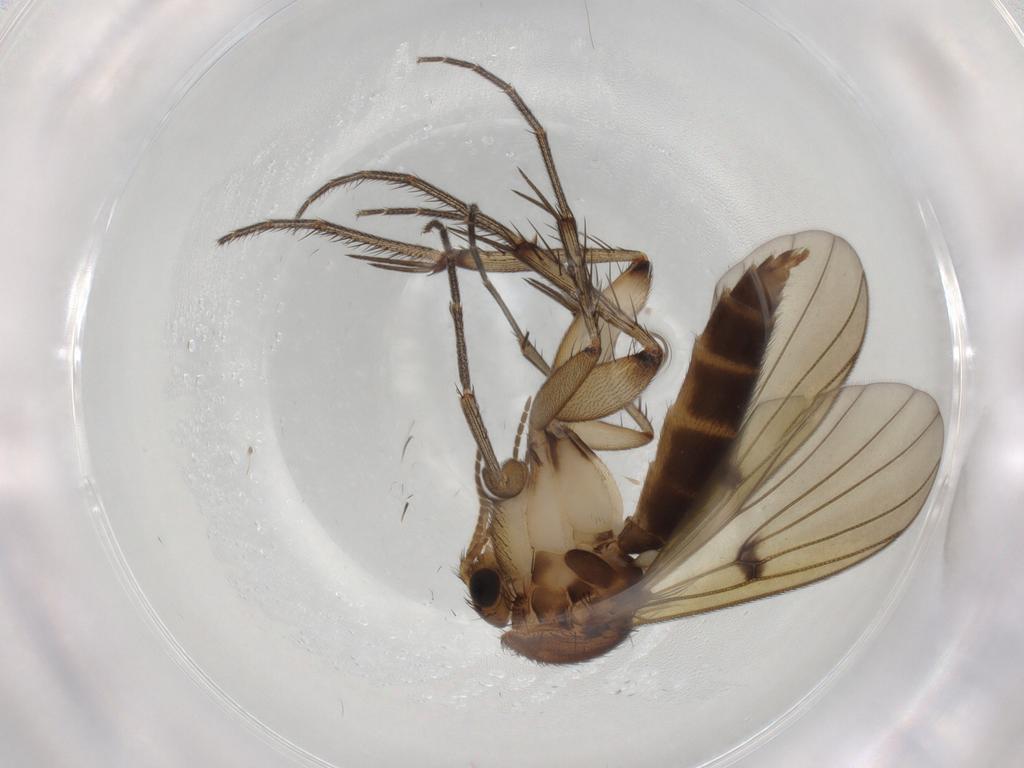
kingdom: Animalia
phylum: Arthropoda
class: Insecta
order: Diptera
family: Mycetophilidae
